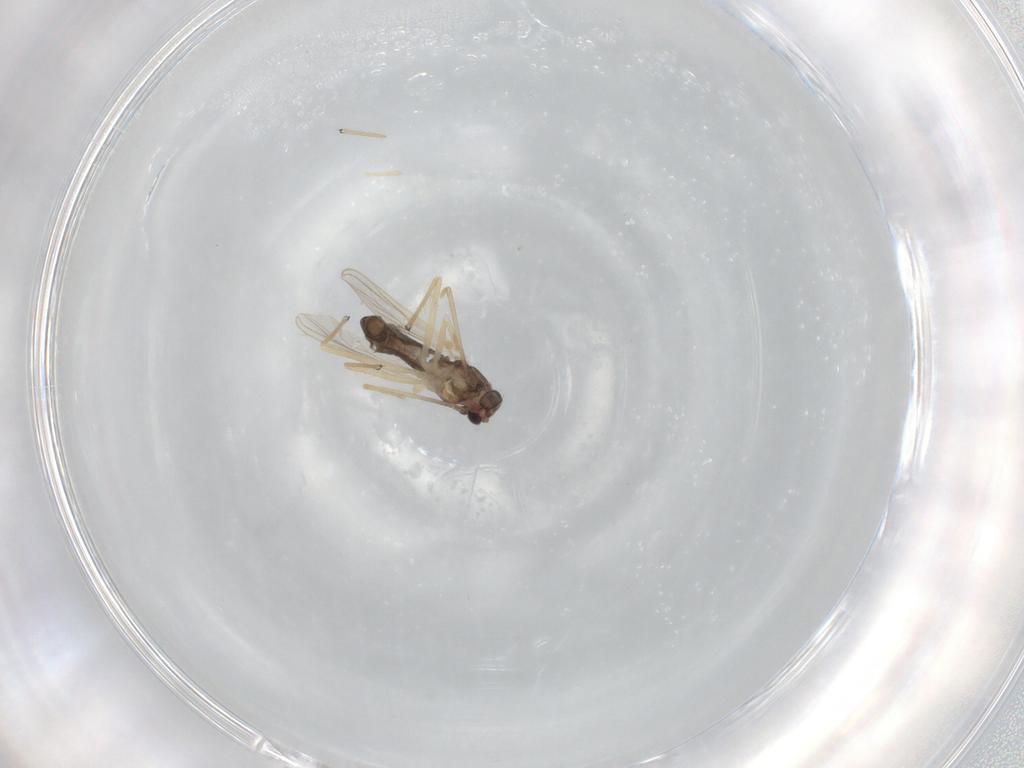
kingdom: Animalia
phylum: Arthropoda
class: Insecta
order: Diptera
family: Chironomidae
